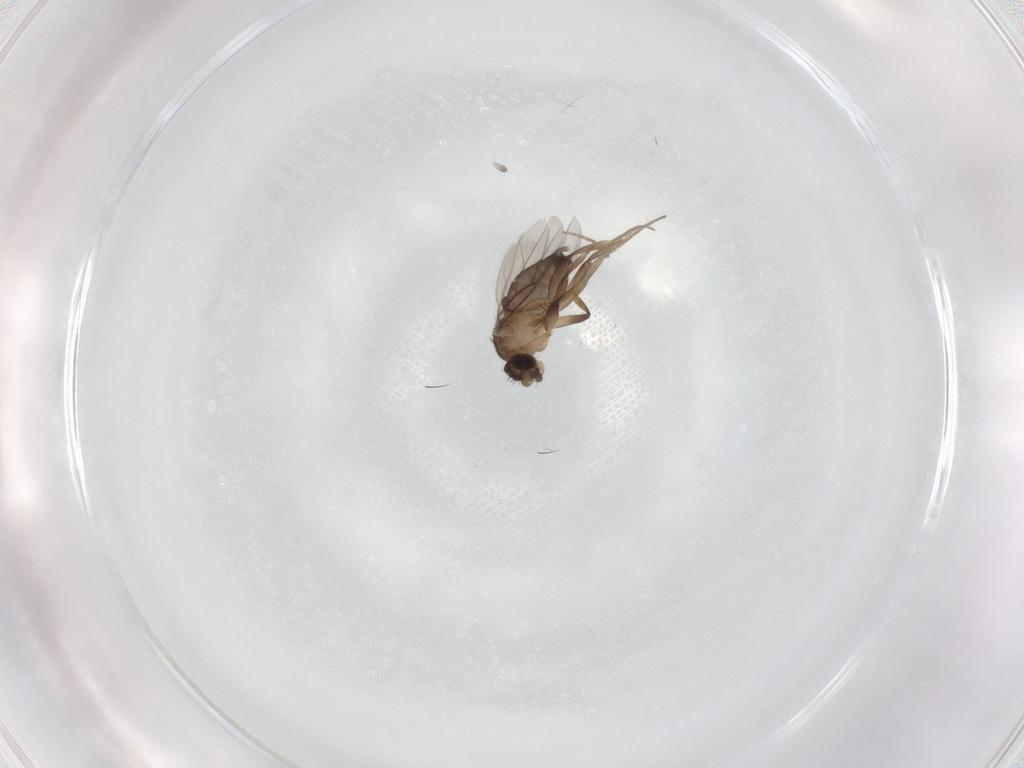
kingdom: Animalia
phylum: Arthropoda
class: Insecta
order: Diptera
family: Phoridae
